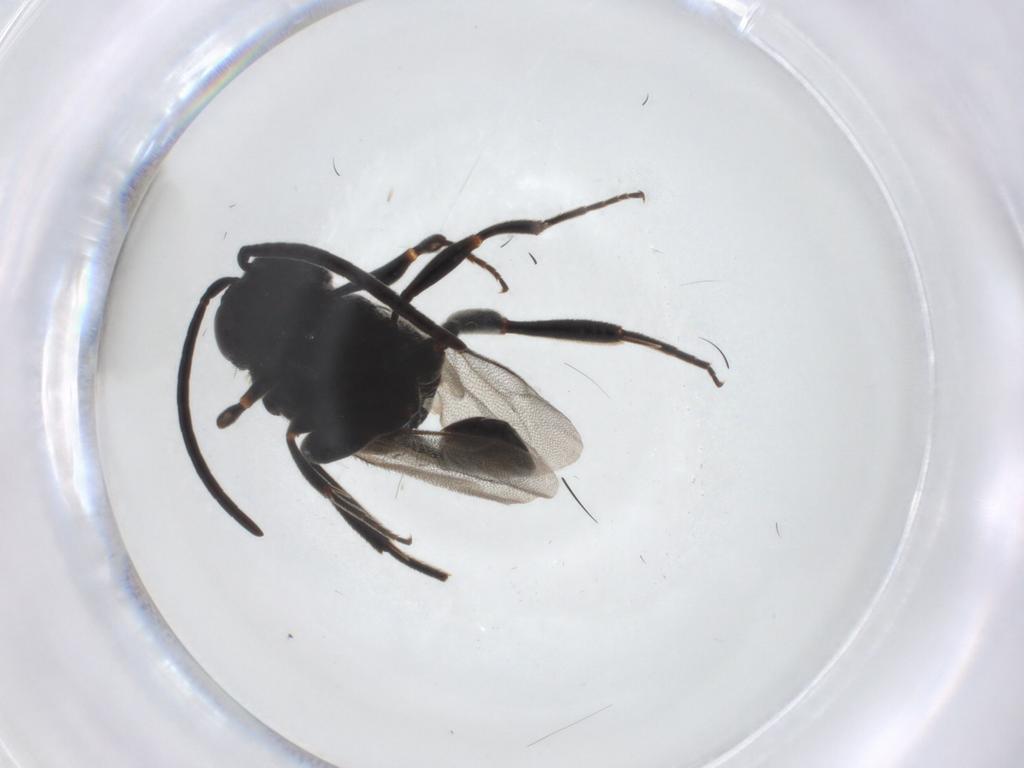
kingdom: Animalia
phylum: Arthropoda
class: Insecta
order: Hymenoptera
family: Evaniidae
